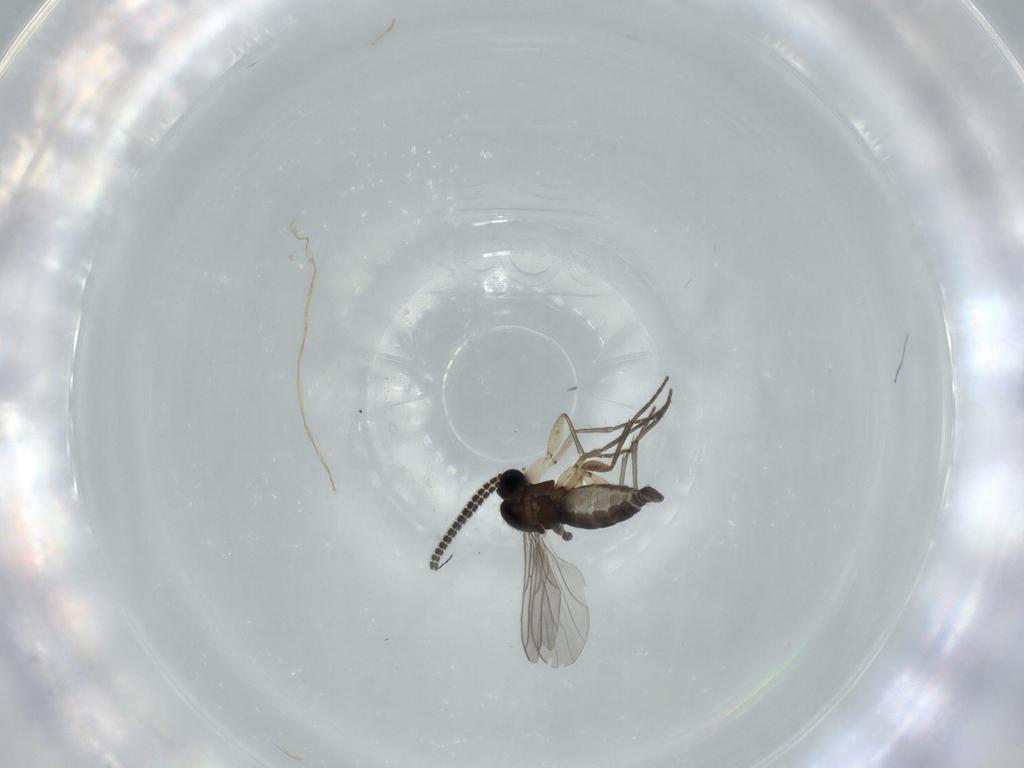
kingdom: Animalia
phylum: Arthropoda
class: Insecta
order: Diptera
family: Sciaridae
